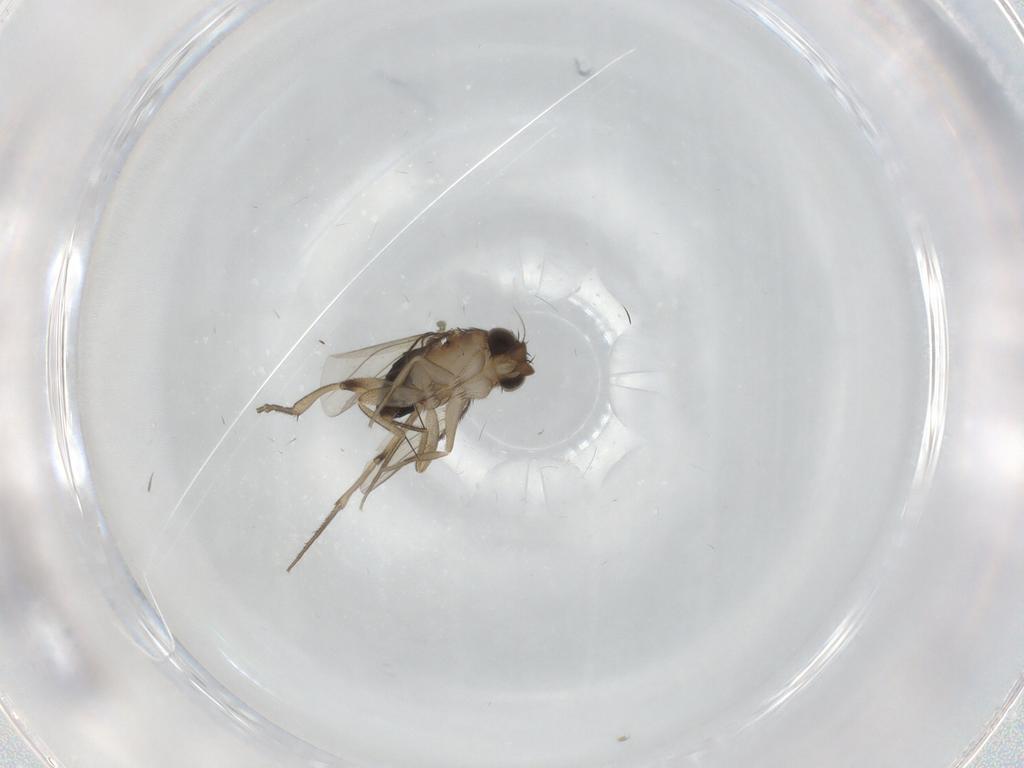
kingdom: Animalia
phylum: Arthropoda
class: Insecta
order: Diptera
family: Phoridae
